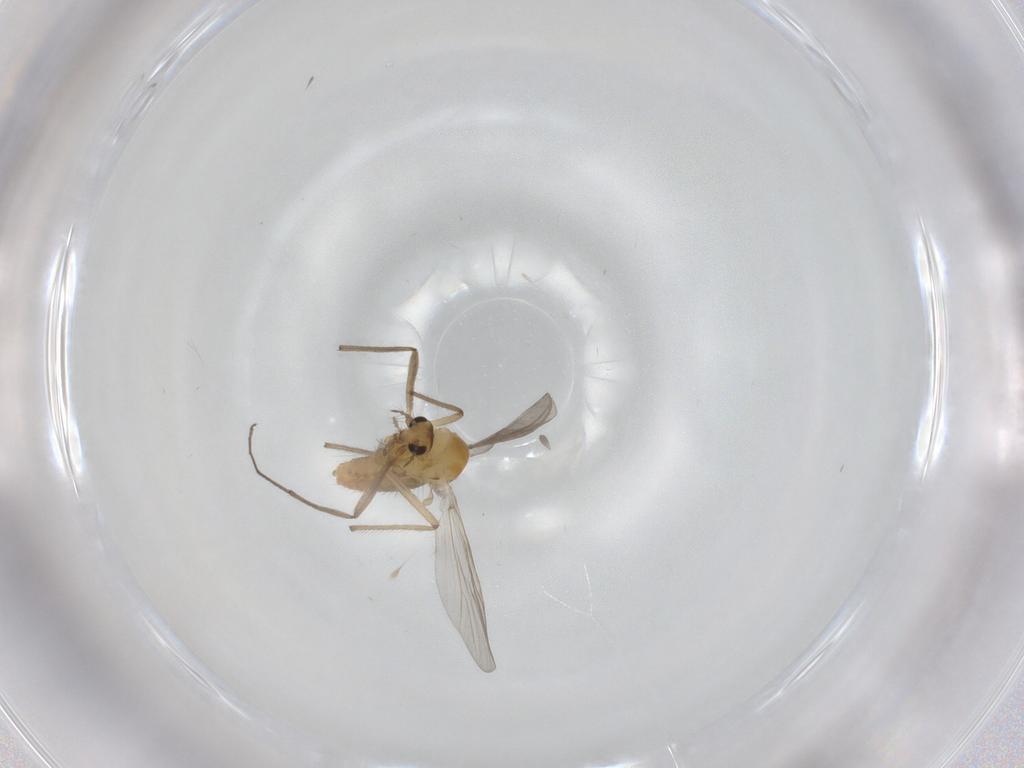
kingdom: Animalia
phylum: Arthropoda
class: Insecta
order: Diptera
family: Chironomidae
